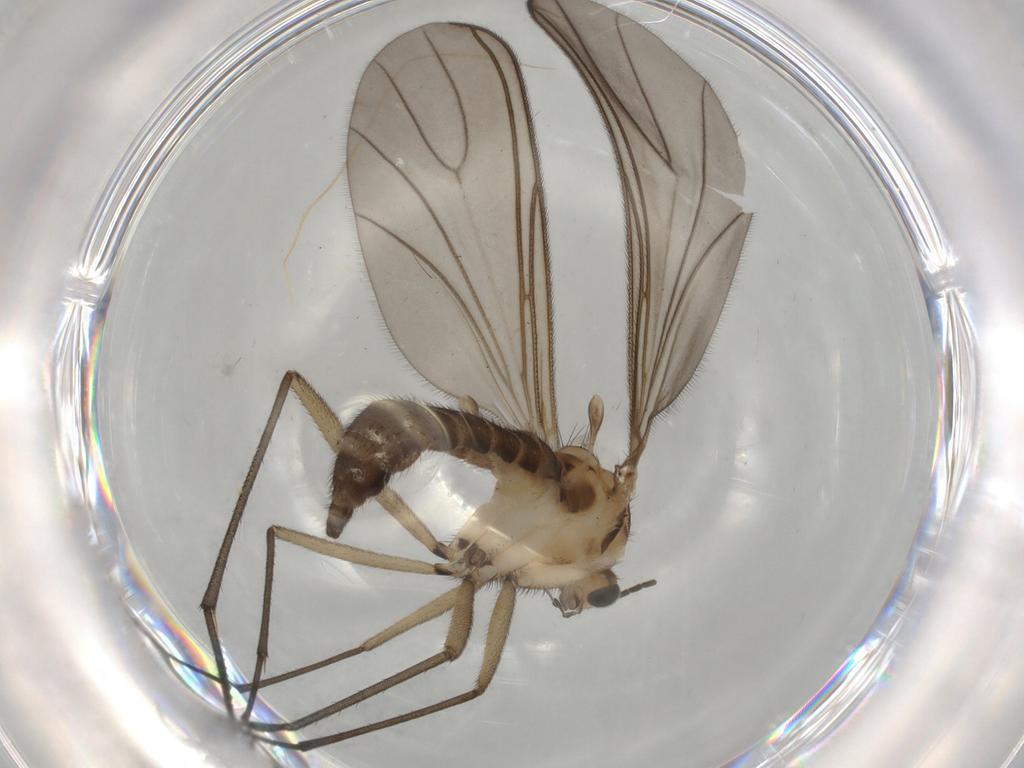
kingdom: Animalia
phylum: Arthropoda
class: Insecta
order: Diptera
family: Sciaridae
